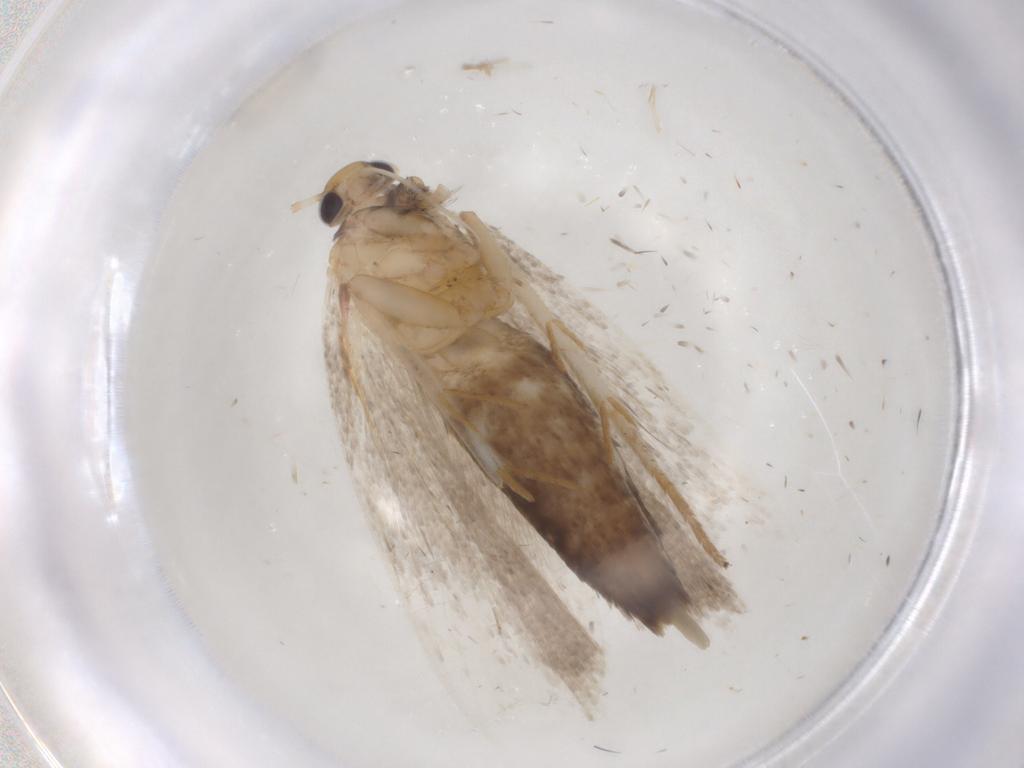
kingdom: Animalia
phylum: Arthropoda
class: Insecta
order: Lepidoptera
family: Gelechiidae
